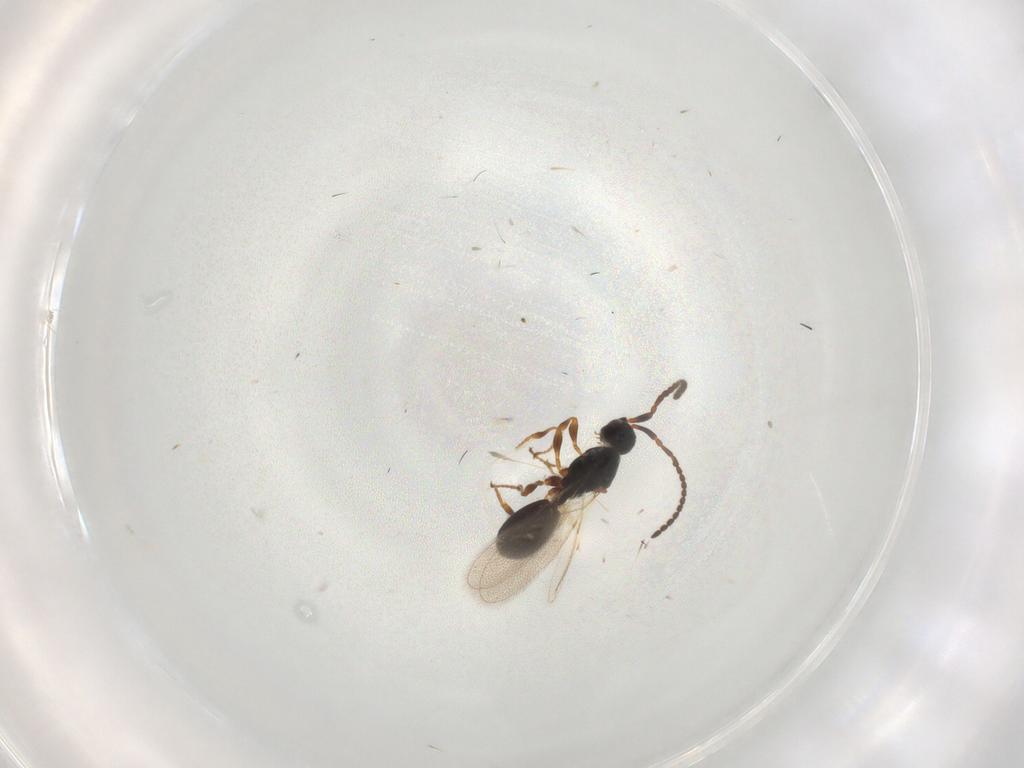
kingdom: Animalia
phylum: Arthropoda
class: Insecta
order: Hymenoptera
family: Diapriidae
